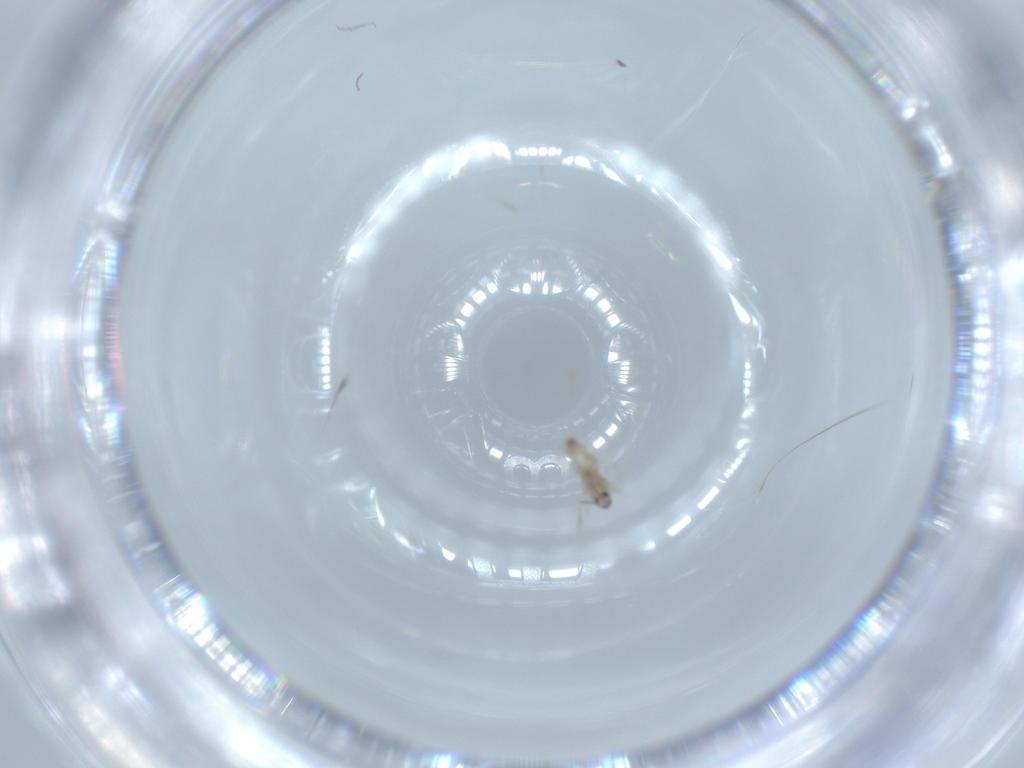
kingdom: Animalia
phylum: Arthropoda
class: Insecta
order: Diptera
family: Cecidomyiidae
